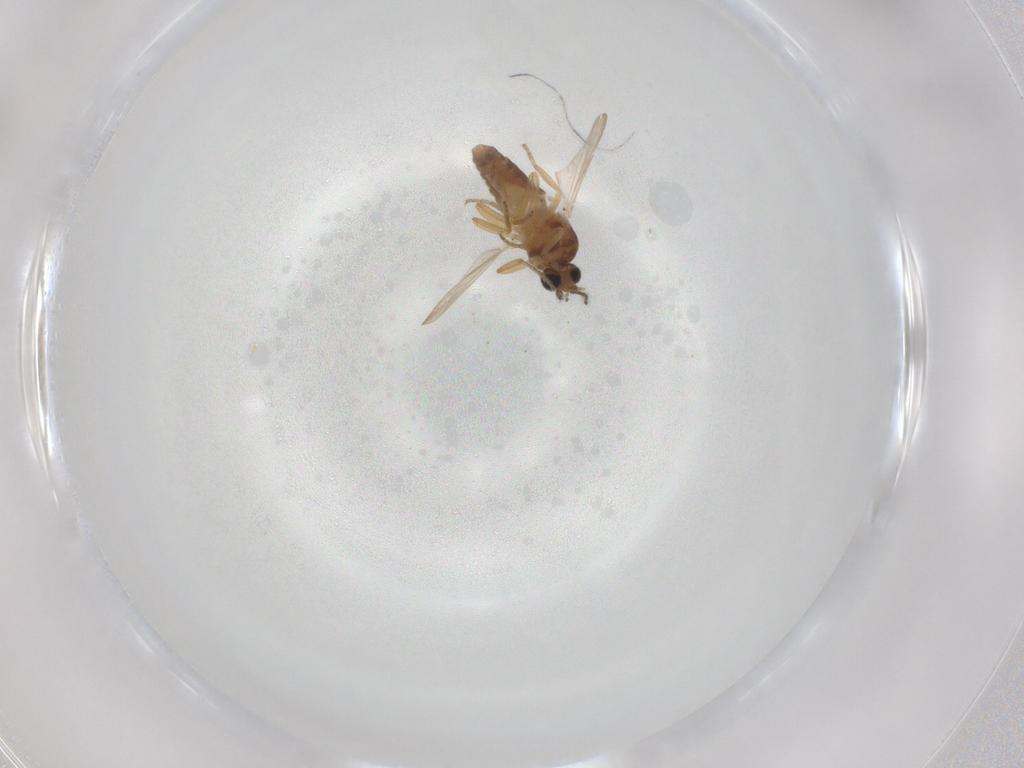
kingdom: Animalia
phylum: Arthropoda
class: Insecta
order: Diptera
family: Ceratopogonidae
